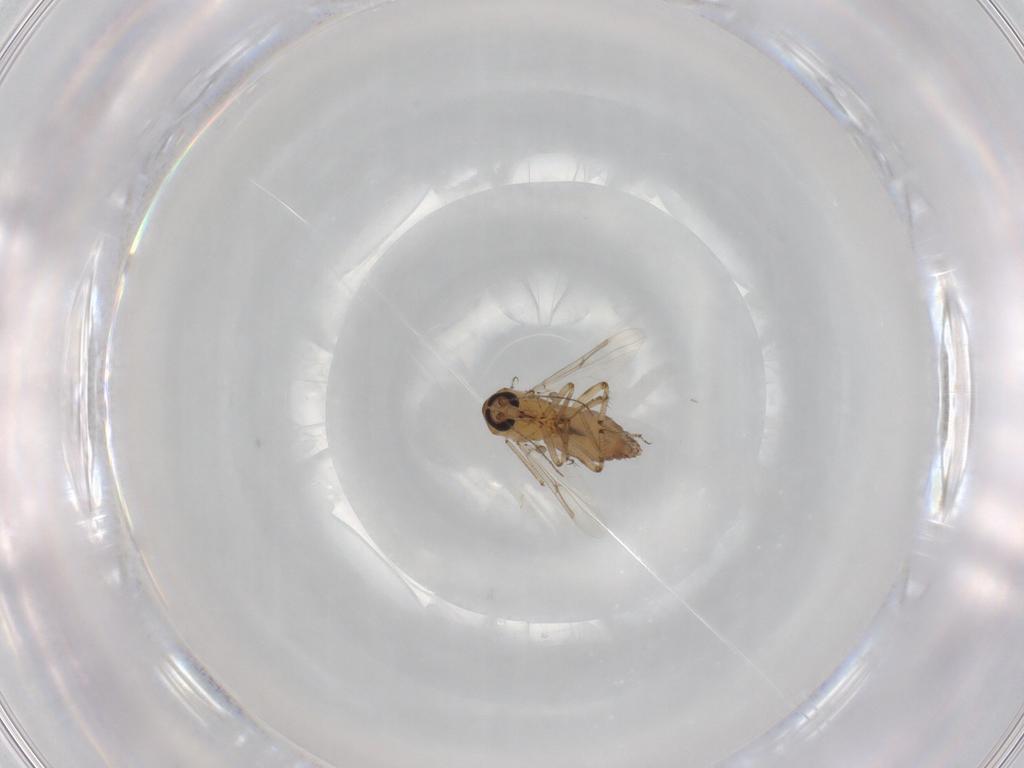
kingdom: Animalia
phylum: Arthropoda
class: Insecta
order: Diptera
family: Ceratopogonidae
